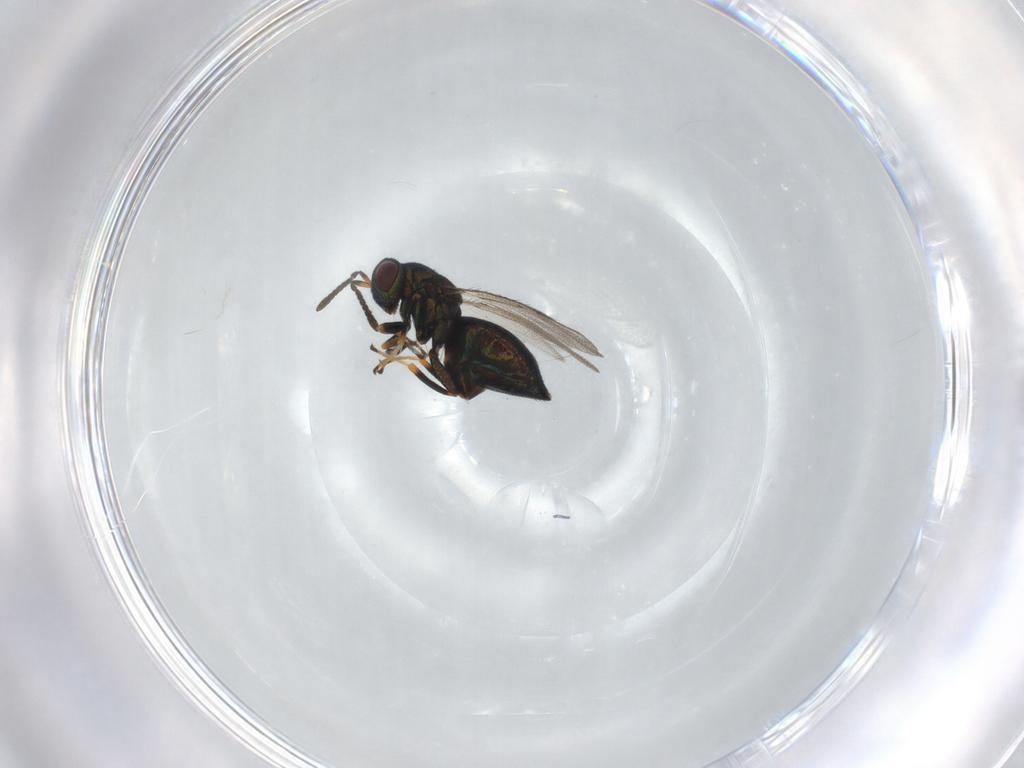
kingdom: Animalia
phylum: Arthropoda
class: Insecta
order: Hymenoptera
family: Pteromalidae
